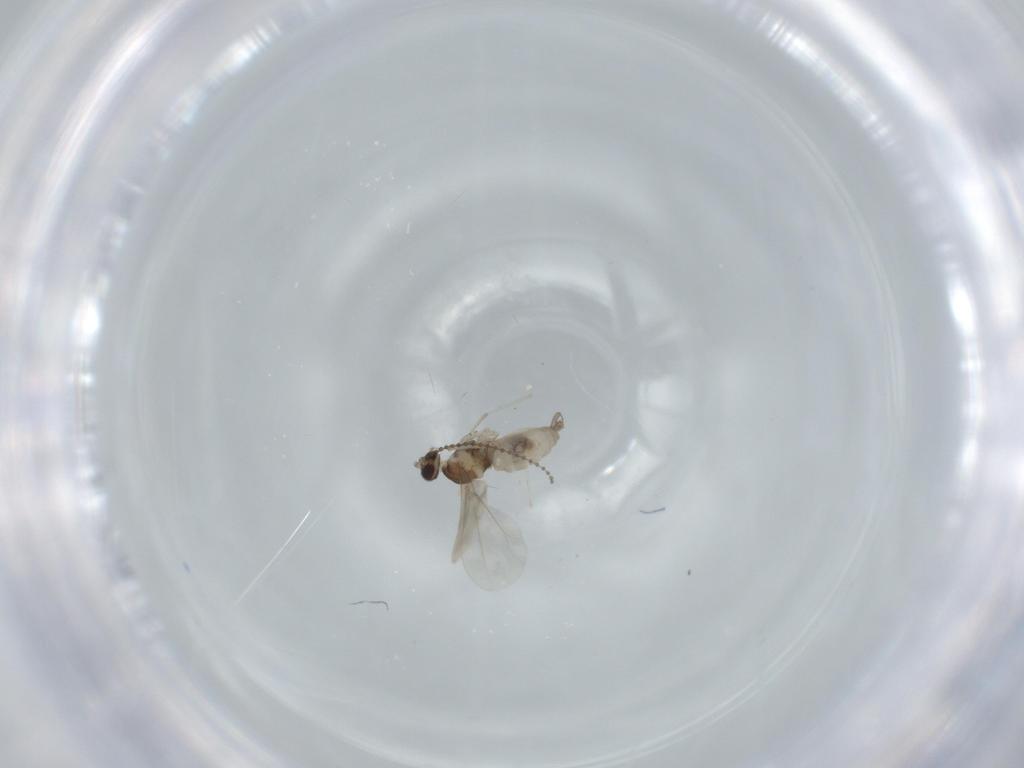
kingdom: Animalia
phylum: Arthropoda
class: Insecta
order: Diptera
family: Cecidomyiidae
